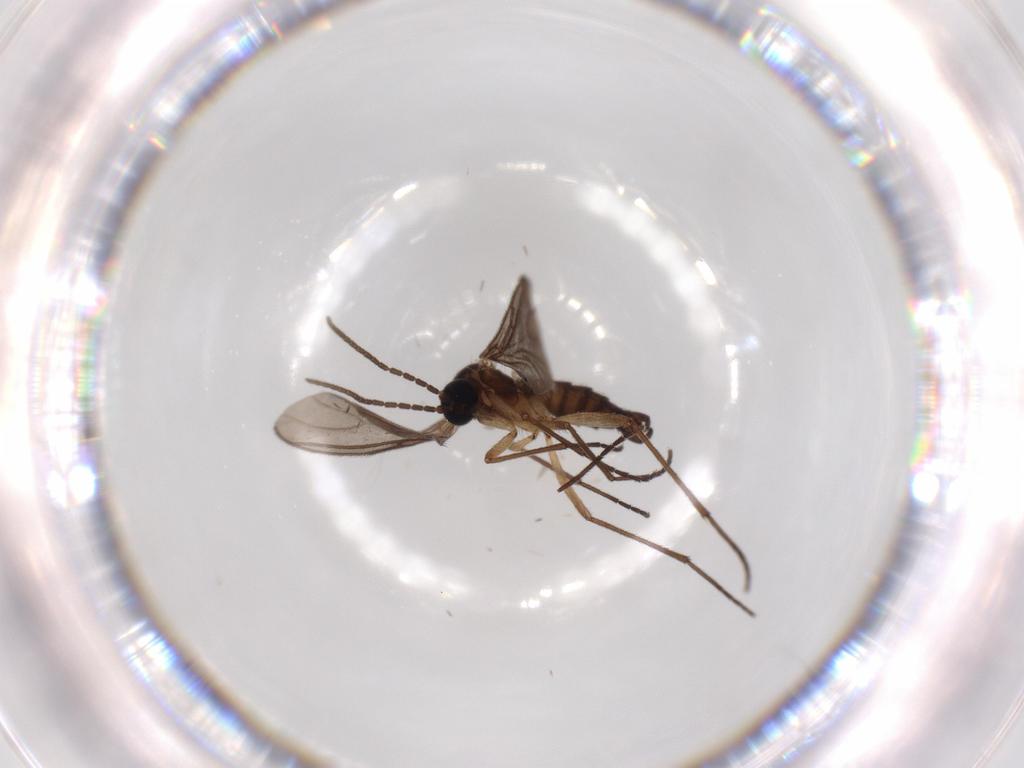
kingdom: Animalia
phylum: Arthropoda
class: Insecta
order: Diptera
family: Sciaridae
